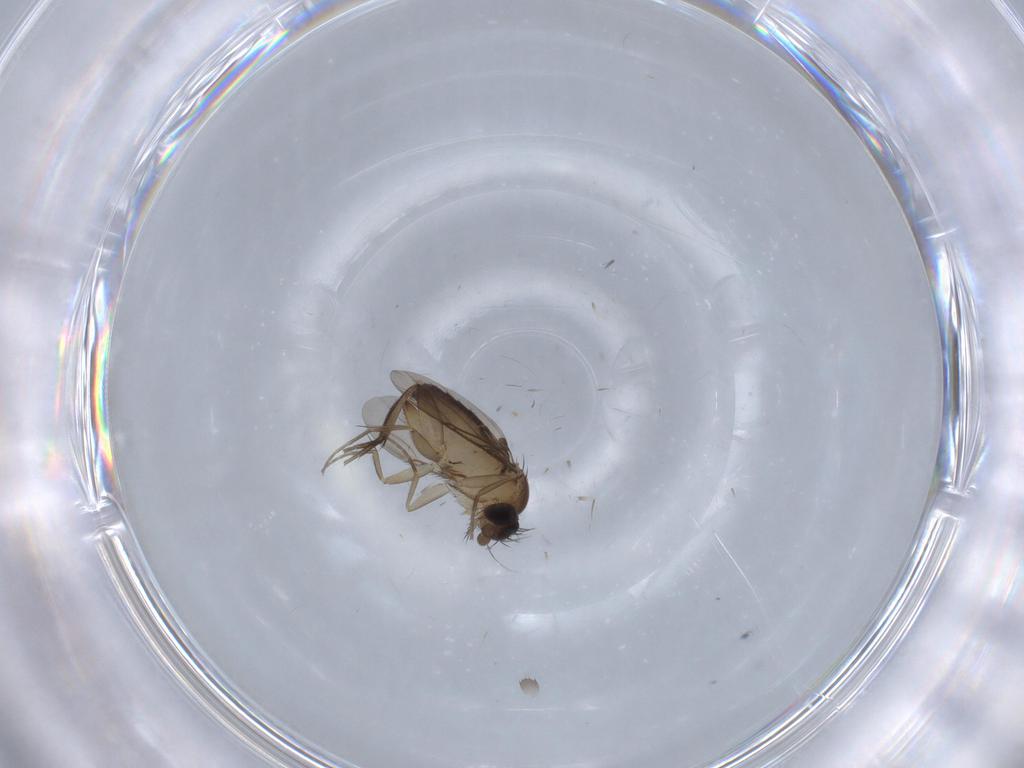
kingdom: Animalia
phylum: Arthropoda
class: Insecta
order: Diptera
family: Phoridae
